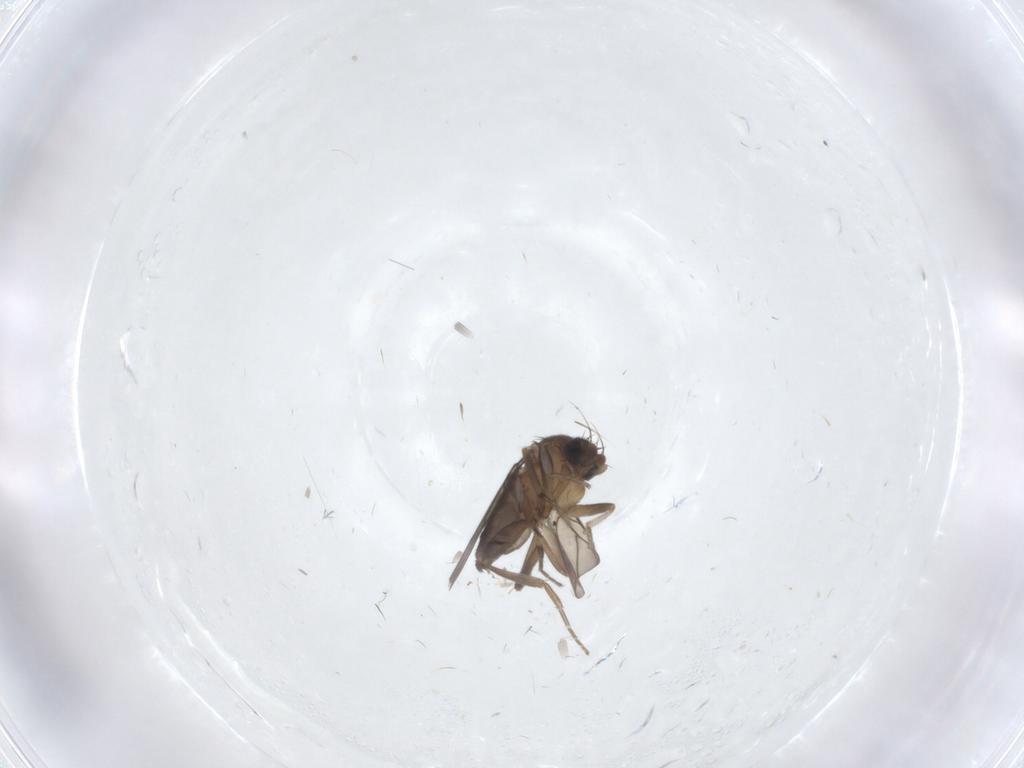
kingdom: Animalia
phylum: Arthropoda
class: Insecta
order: Diptera
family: Phoridae
